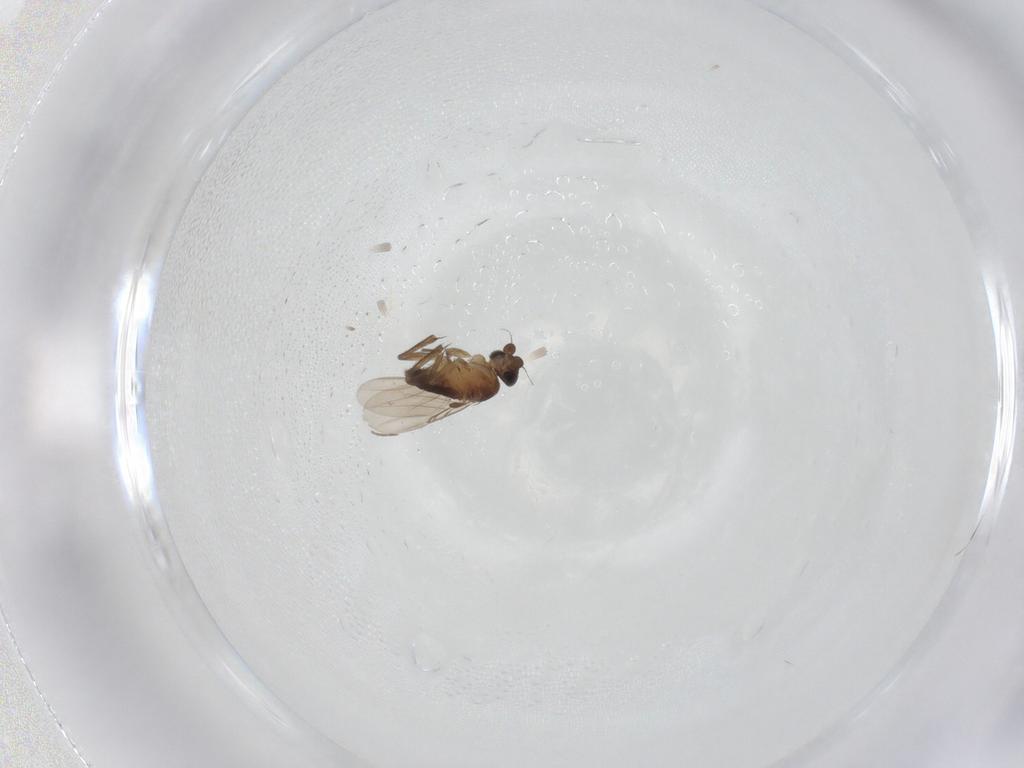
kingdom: Animalia
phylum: Arthropoda
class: Insecta
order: Diptera
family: Phoridae
